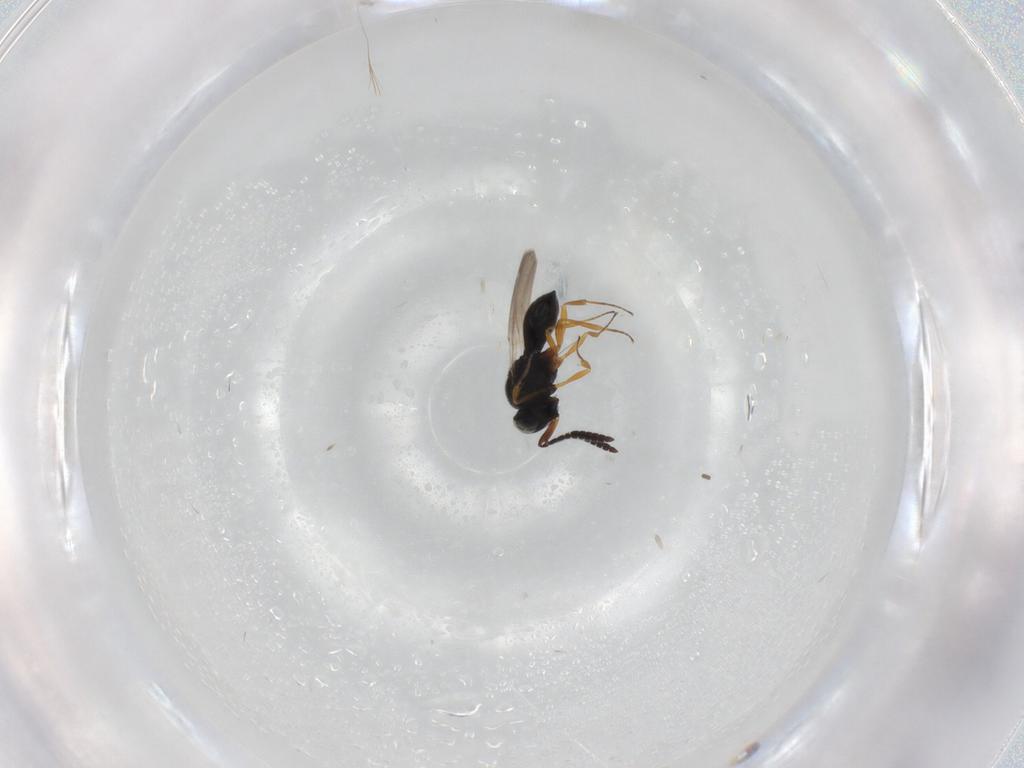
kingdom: Animalia
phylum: Arthropoda
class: Insecta
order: Hymenoptera
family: Scelionidae
